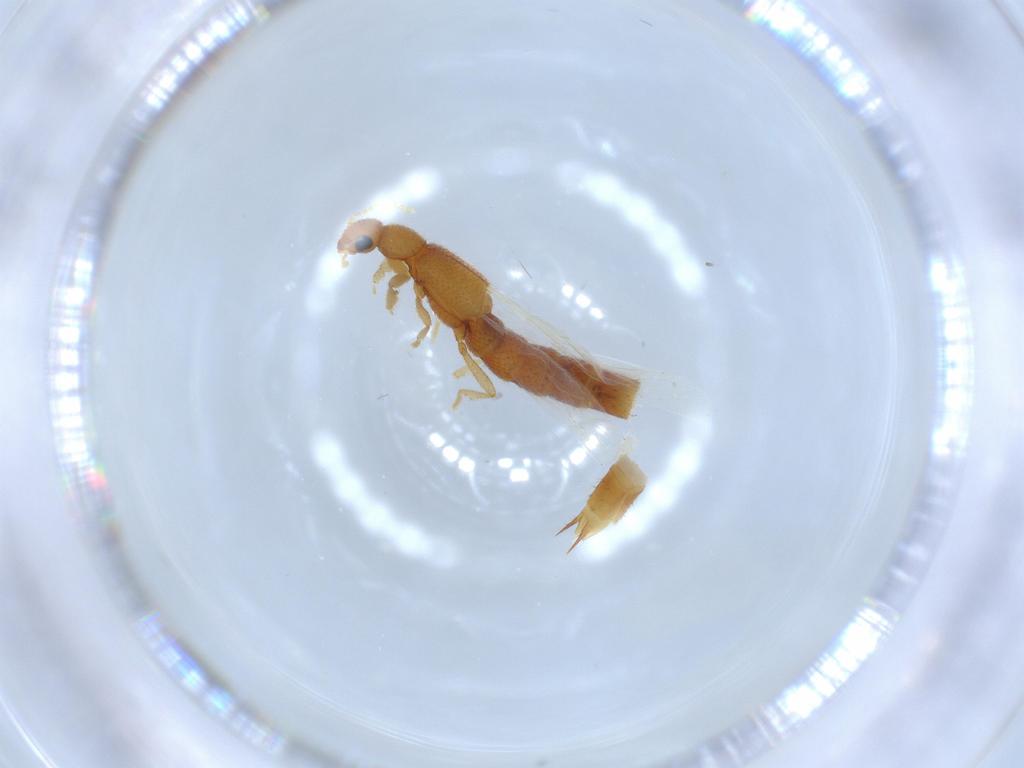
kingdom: Animalia
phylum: Arthropoda
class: Insecta
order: Coleoptera
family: Staphylinidae
